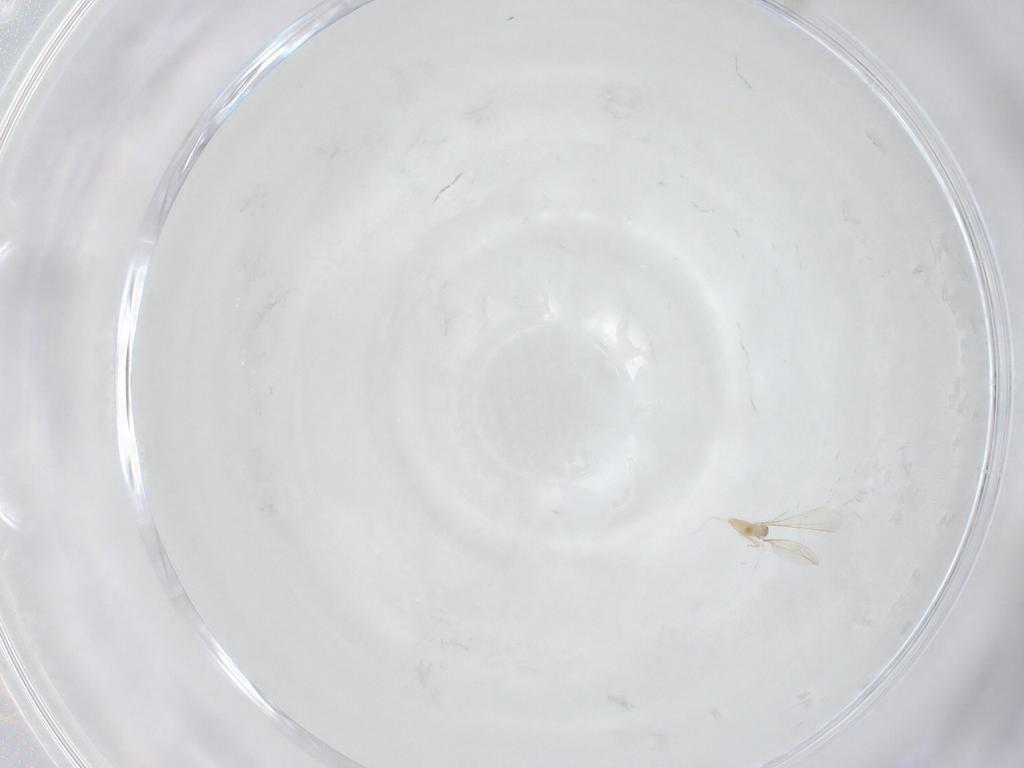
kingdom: Animalia
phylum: Arthropoda
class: Insecta
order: Diptera
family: Cecidomyiidae
